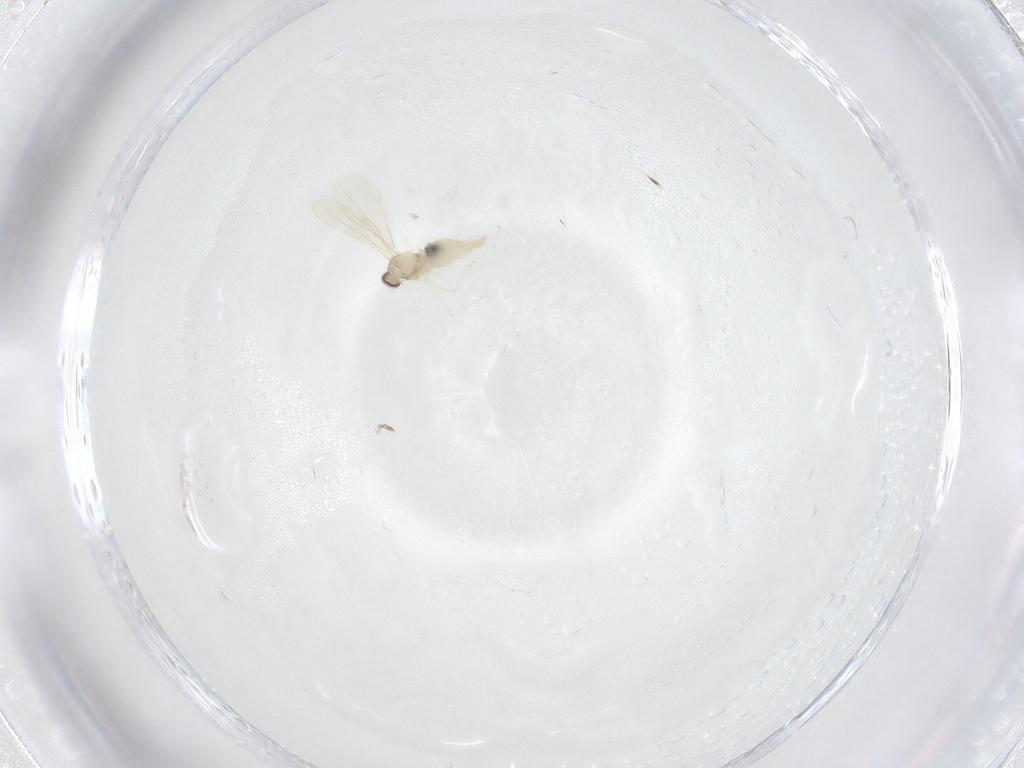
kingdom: Animalia
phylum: Arthropoda
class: Insecta
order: Diptera
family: Cecidomyiidae
